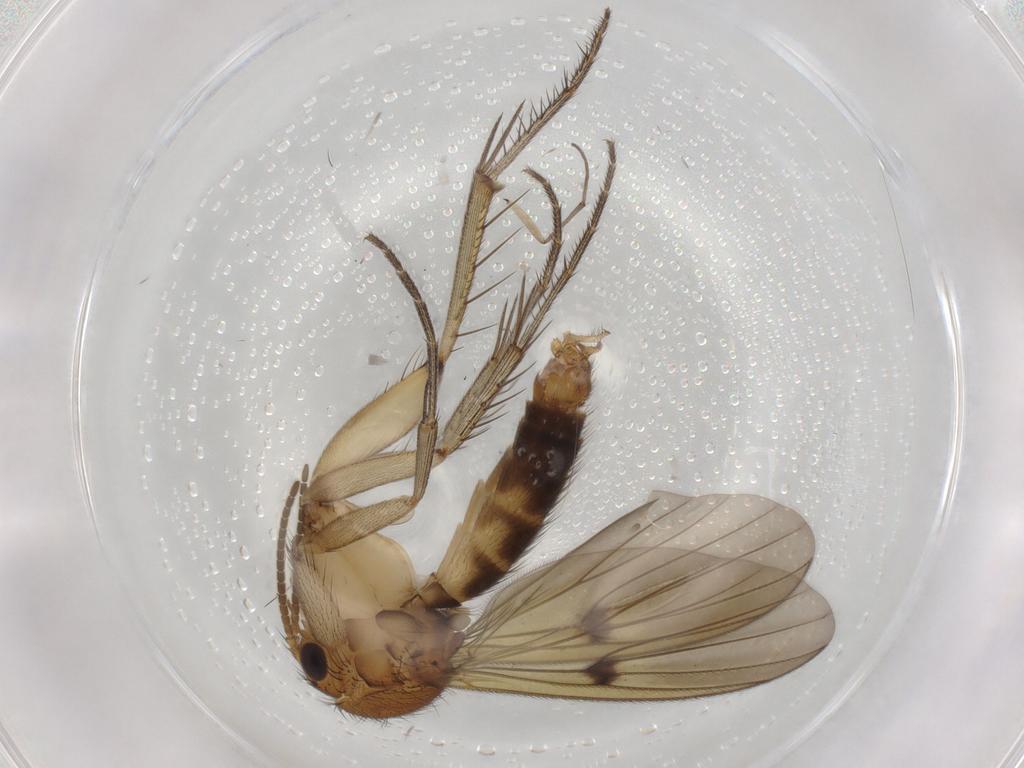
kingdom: Animalia
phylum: Arthropoda
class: Insecta
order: Diptera
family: Mycetophilidae
